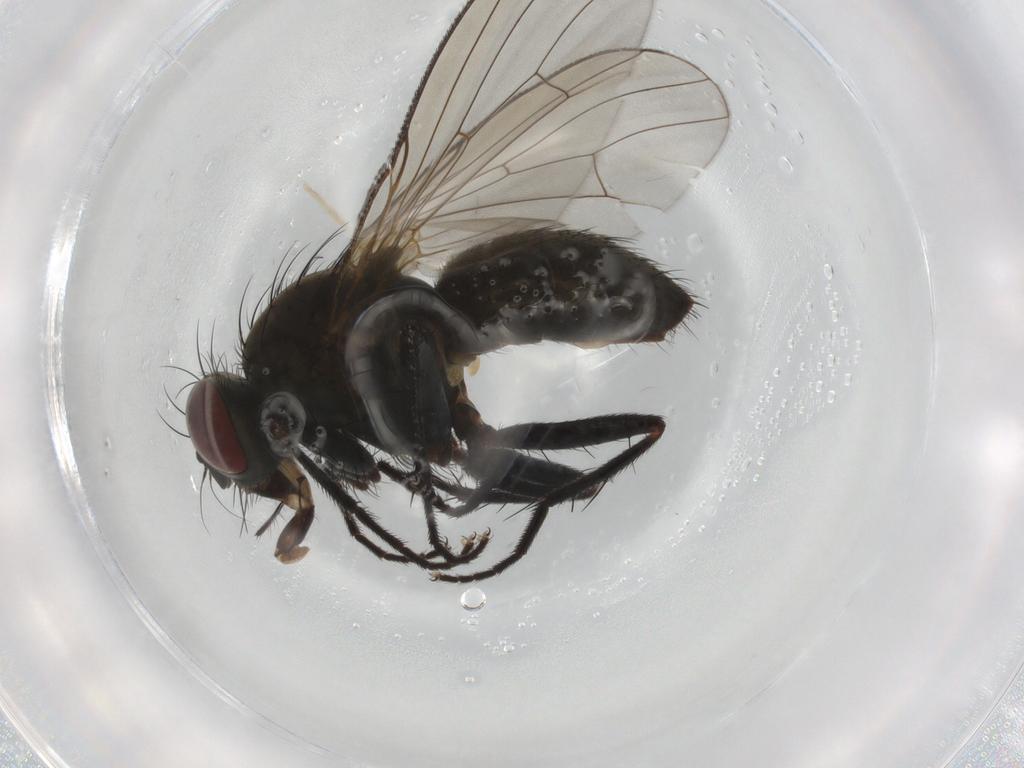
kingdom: Animalia
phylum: Arthropoda
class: Insecta
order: Diptera
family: Muscidae
